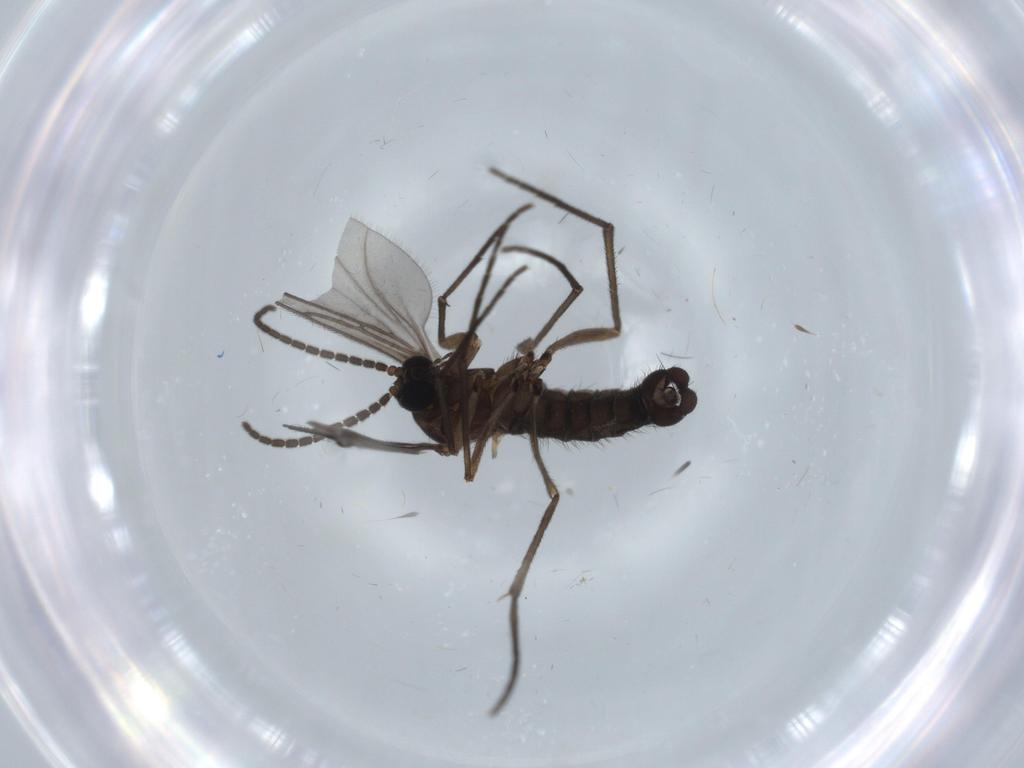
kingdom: Animalia
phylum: Arthropoda
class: Insecta
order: Diptera
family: Sciaridae
